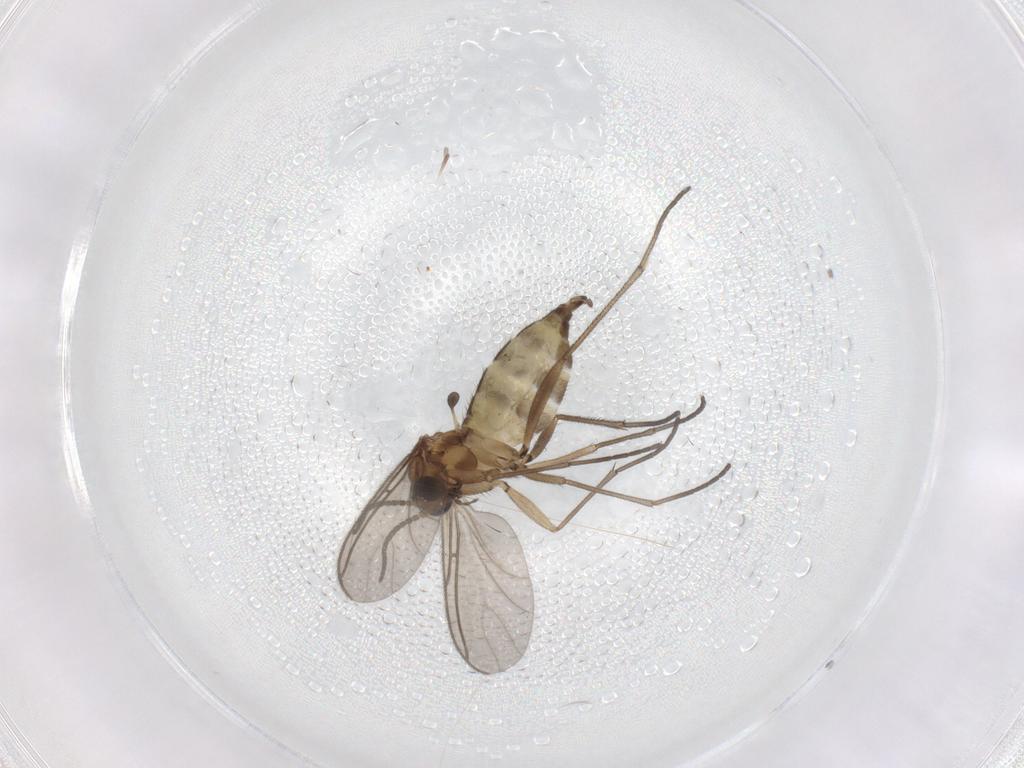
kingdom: Animalia
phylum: Arthropoda
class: Insecta
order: Diptera
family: Sciaridae
